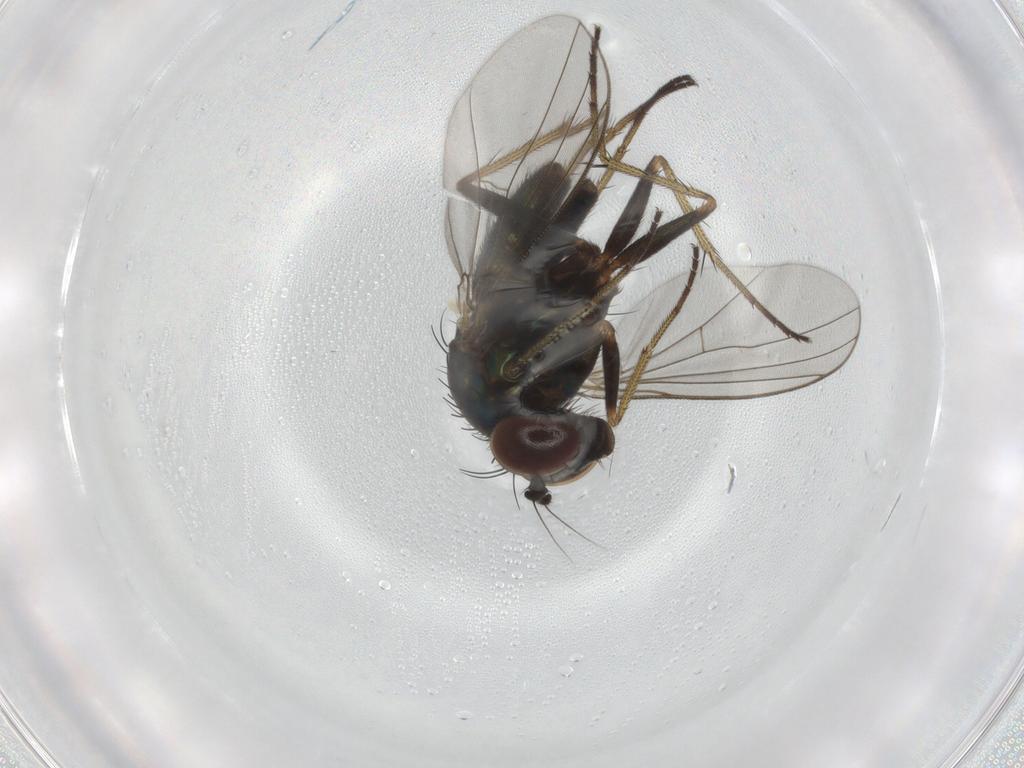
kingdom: Animalia
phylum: Arthropoda
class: Insecta
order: Diptera
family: Dolichopodidae
